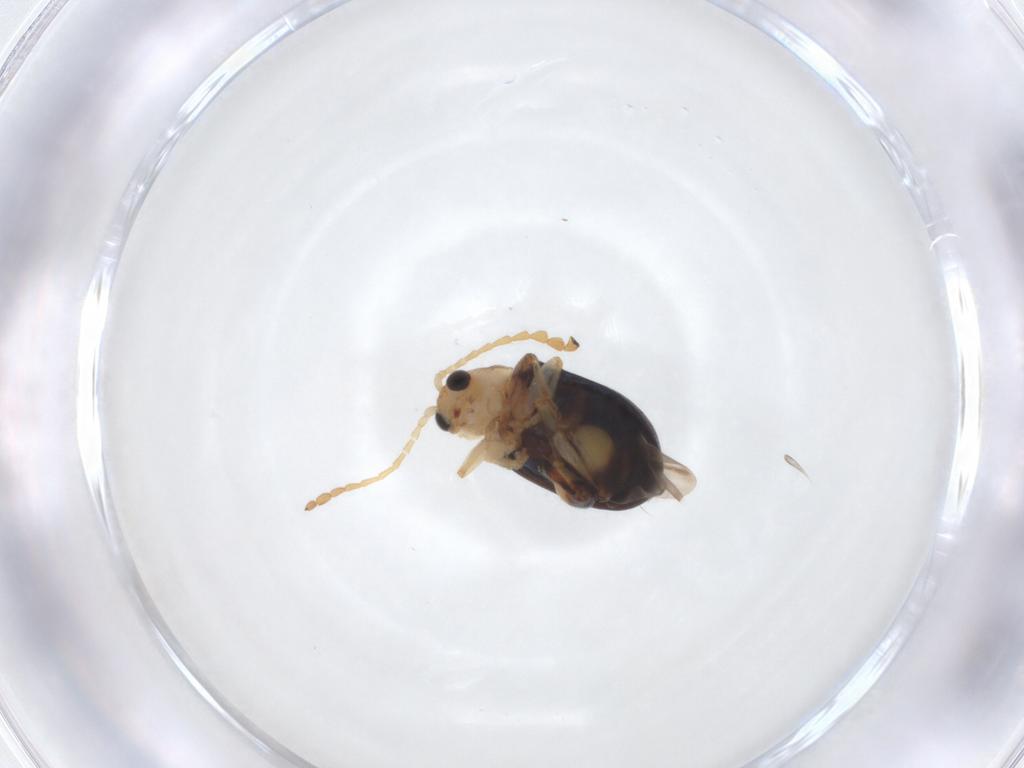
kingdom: Animalia
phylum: Arthropoda
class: Insecta
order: Coleoptera
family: Chrysomelidae
